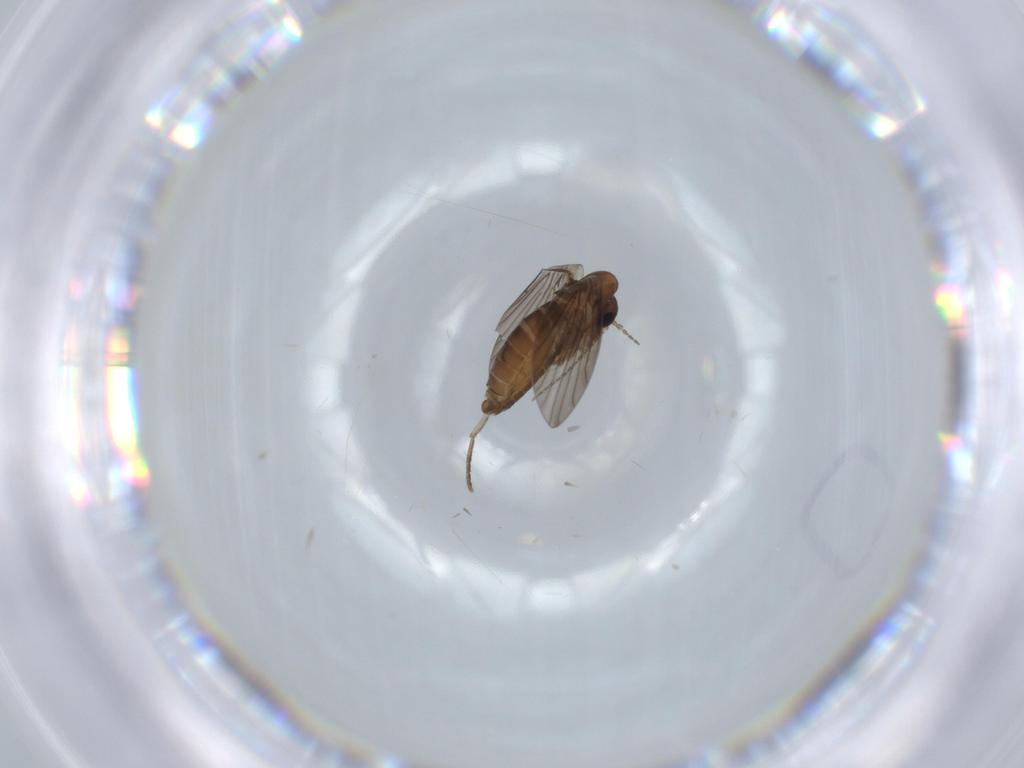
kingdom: Animalia
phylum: Arthropoda
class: Insecta
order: Diptera
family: Psychodidae
